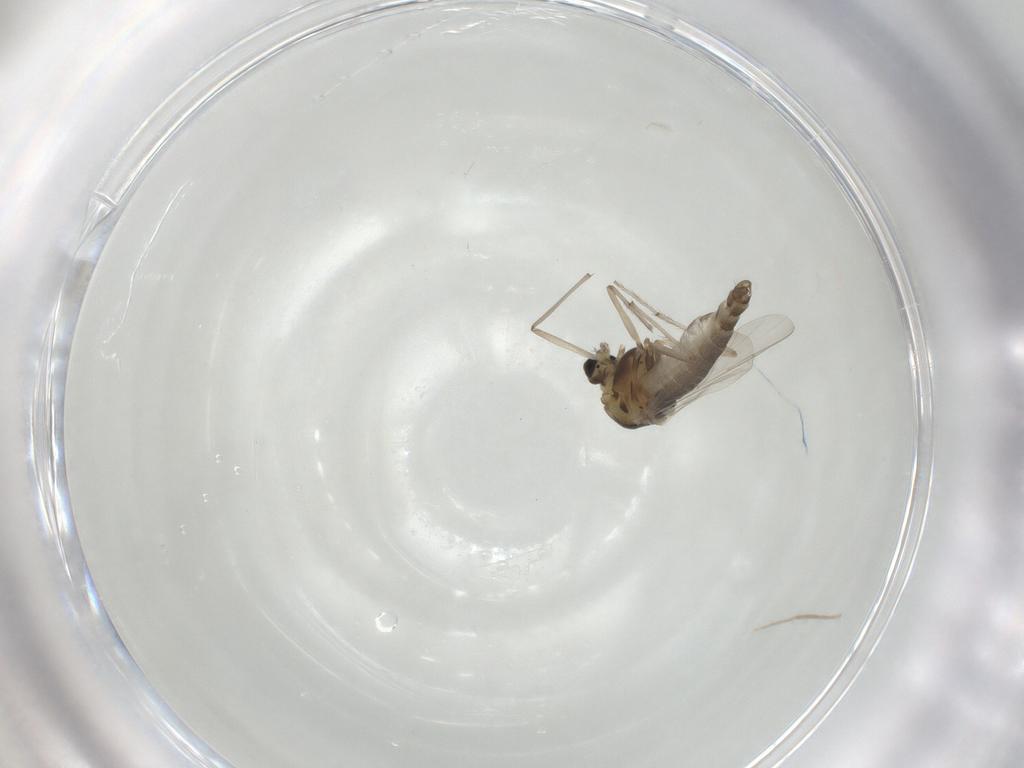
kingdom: Animalia
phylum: Arthropoda
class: Insecta
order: Diptera
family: Chironomidae
